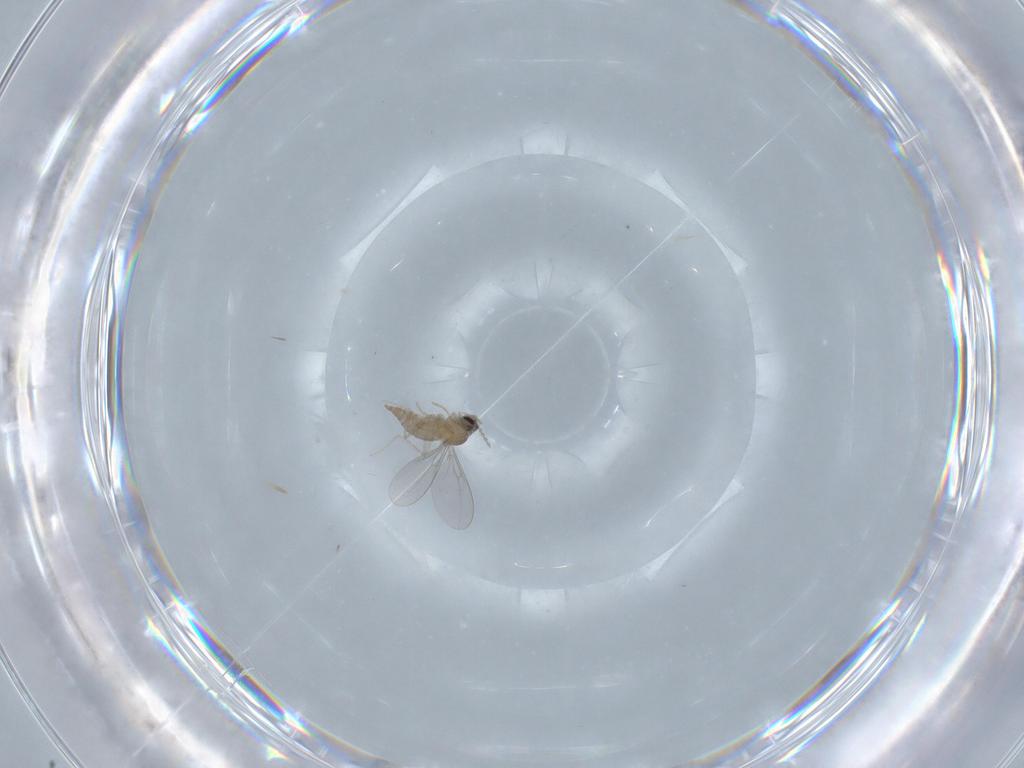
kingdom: Animalia
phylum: Arthropoda
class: Insecta
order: Diptera
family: Cecidomyiidae
